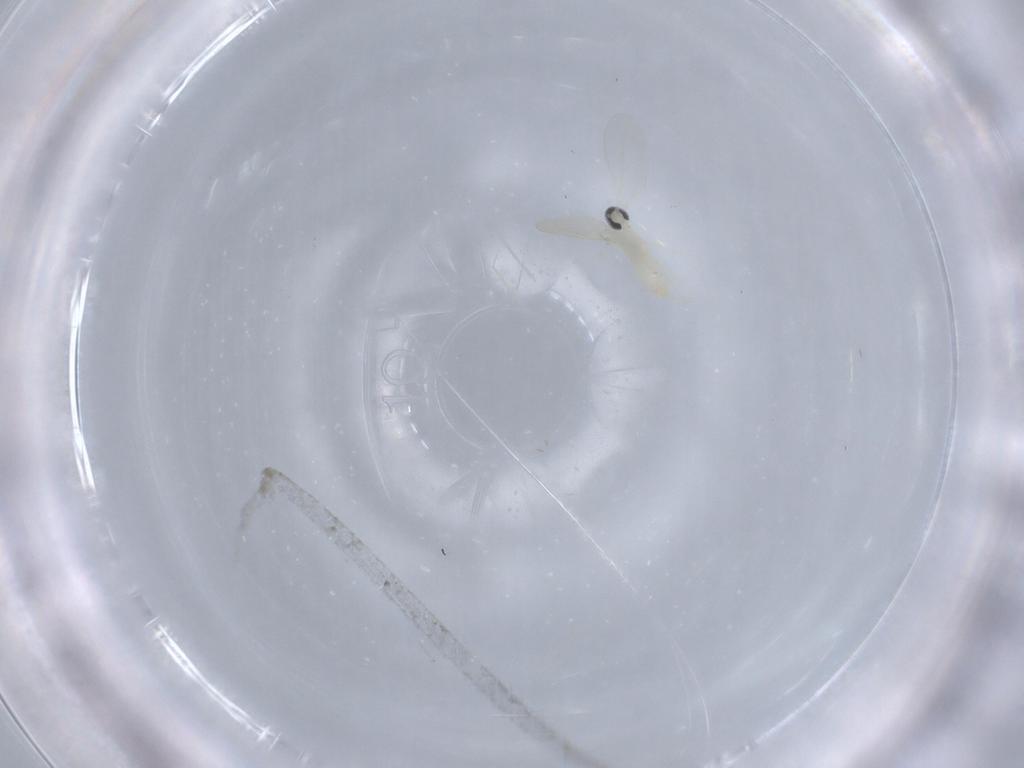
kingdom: Animalia
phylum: Arthropoda
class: Insecta
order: Diptera
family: Cecidomyiidae
